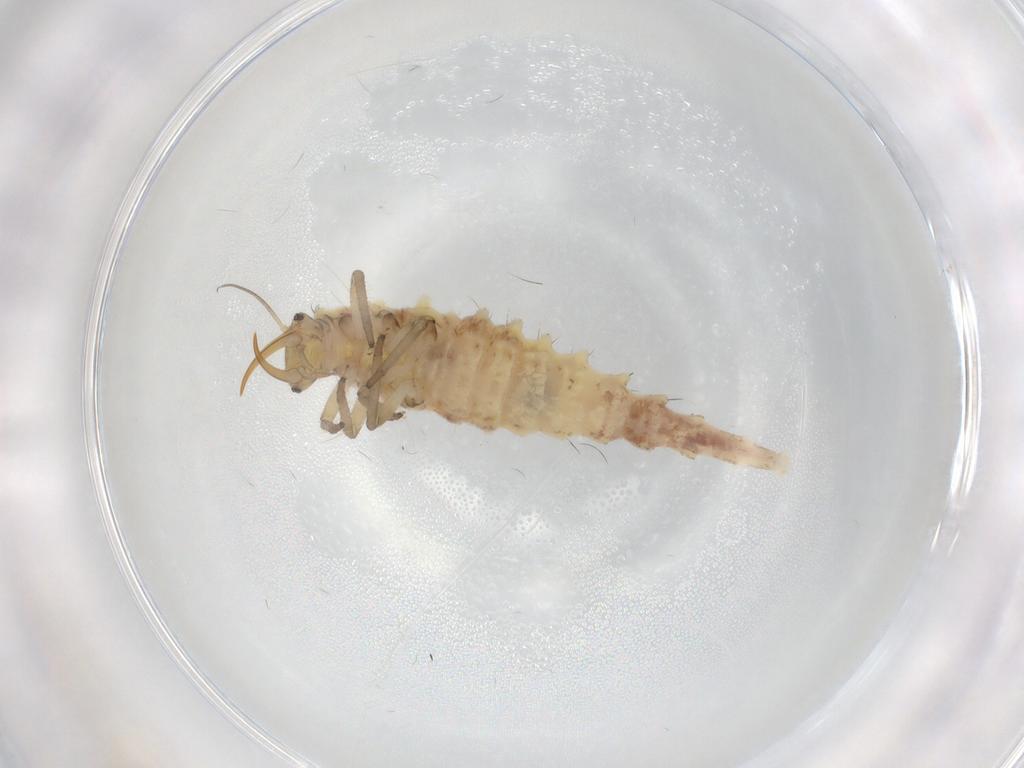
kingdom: Animalia
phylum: Arthropoda
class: Insecta
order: Neuroptera
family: Chrysopidae
